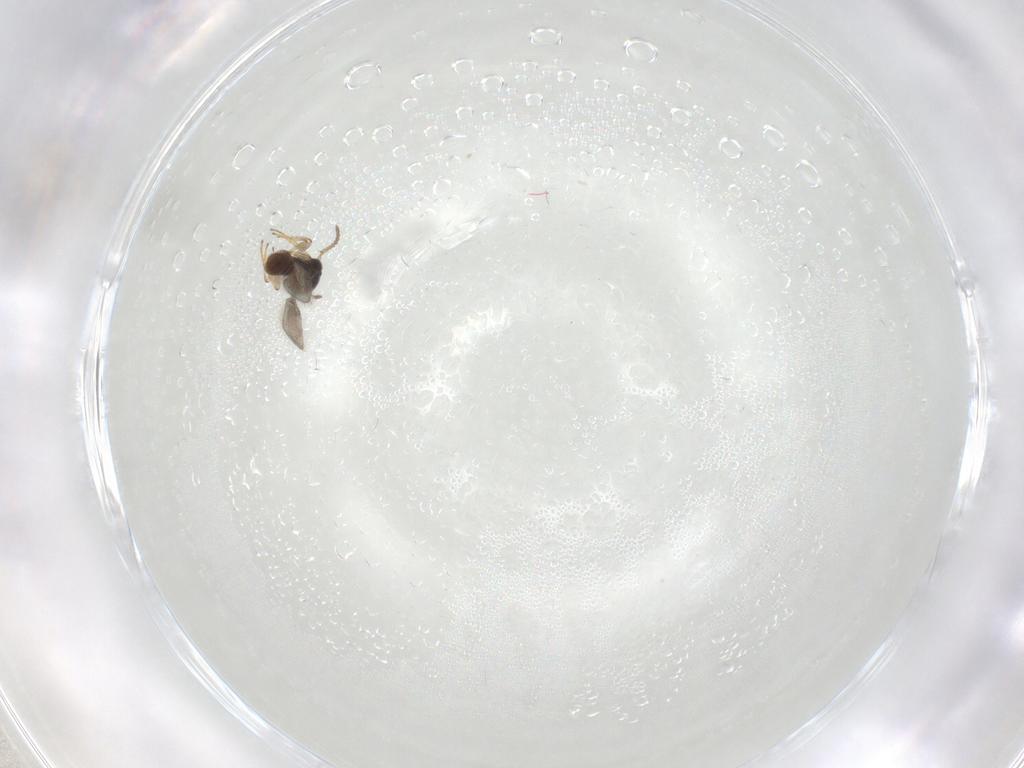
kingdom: Animalia
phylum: Arthropoda
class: Insecta
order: Hymenoptera
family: Scelionidae
